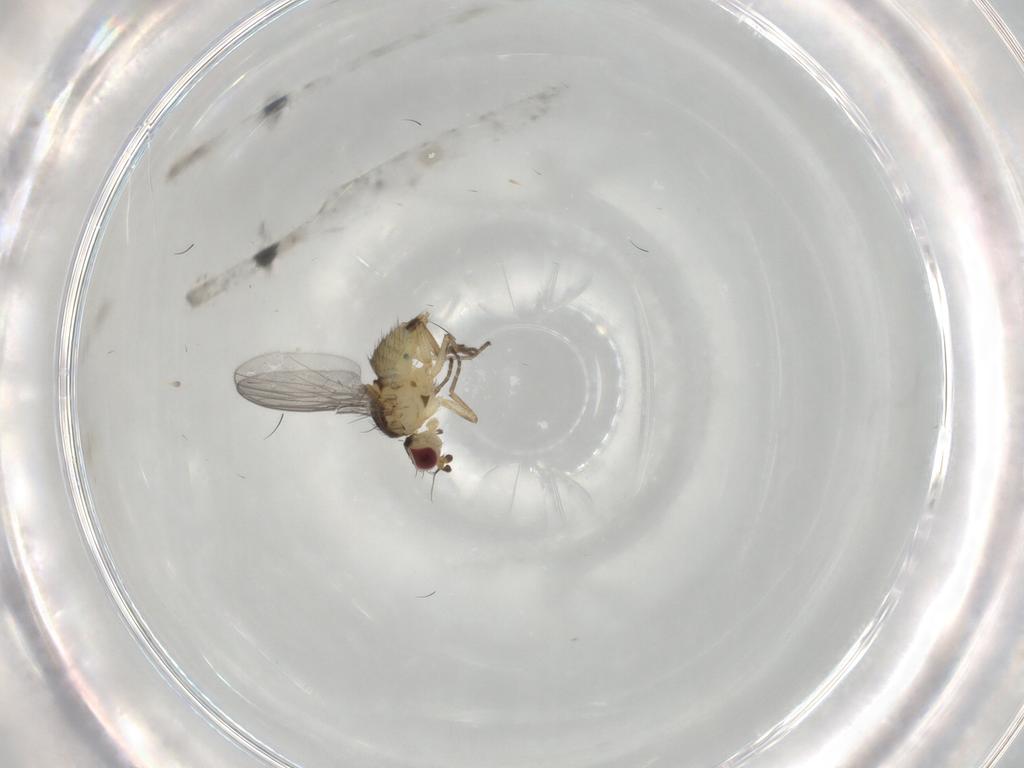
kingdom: Animalia
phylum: Arthropoda
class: Insecta
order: Diptera
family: Agromyzidae
